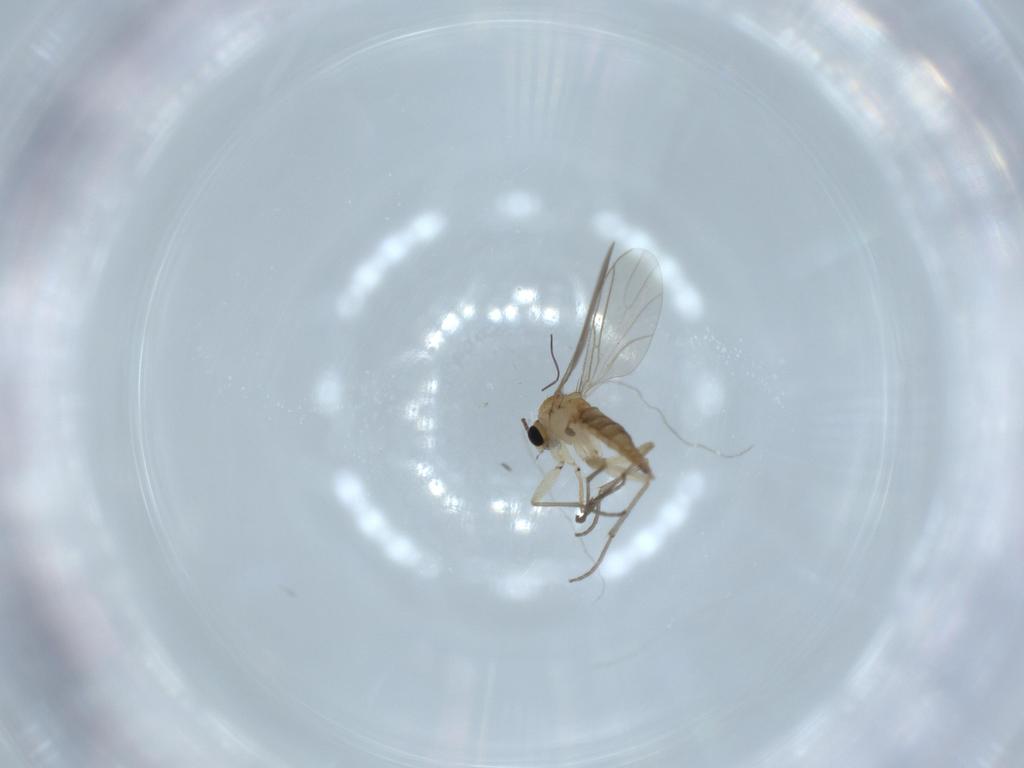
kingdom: Animalia
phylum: Arthropoda
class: Insecta
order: Diptera
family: Sciaridae
